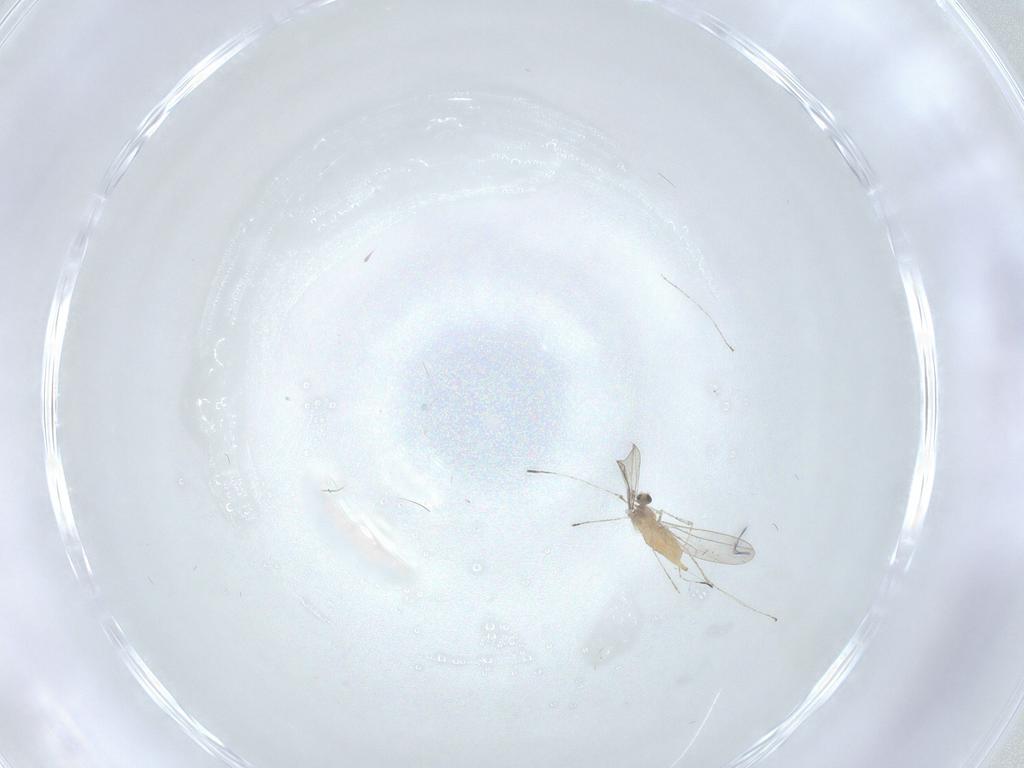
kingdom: Animalia
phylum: Arthropoda
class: Insecta
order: Diptera
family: Cecidomyiidae
